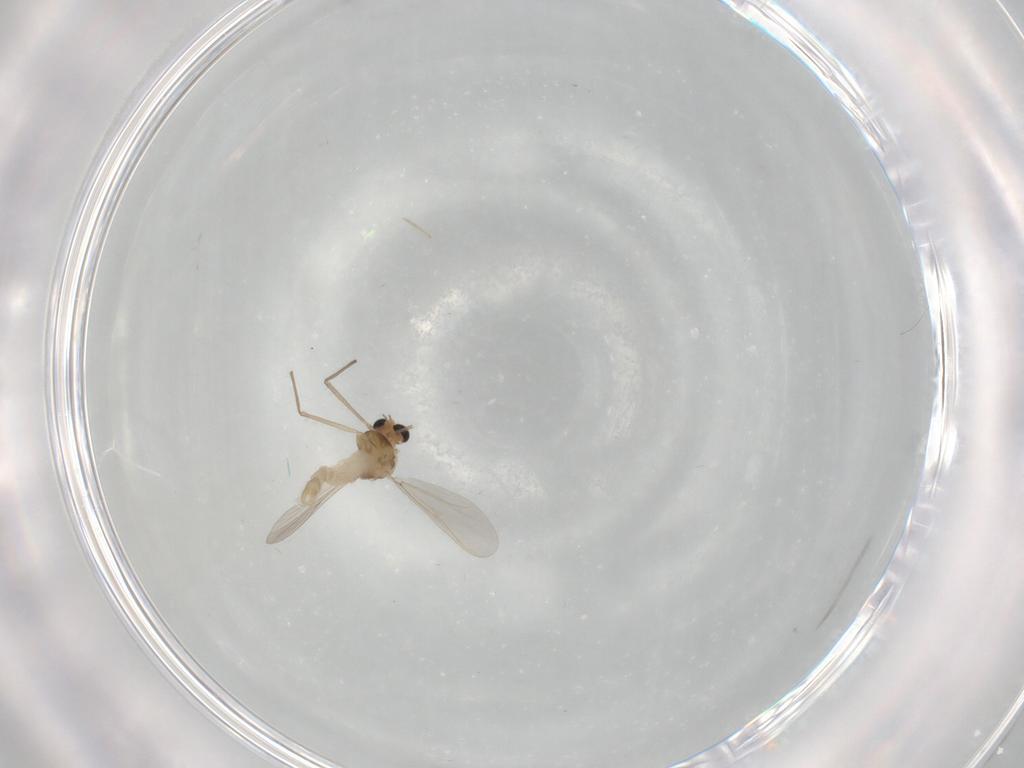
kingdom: Animalia
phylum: Arthropoda
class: Insecta
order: Diptera
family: Chironomidae
